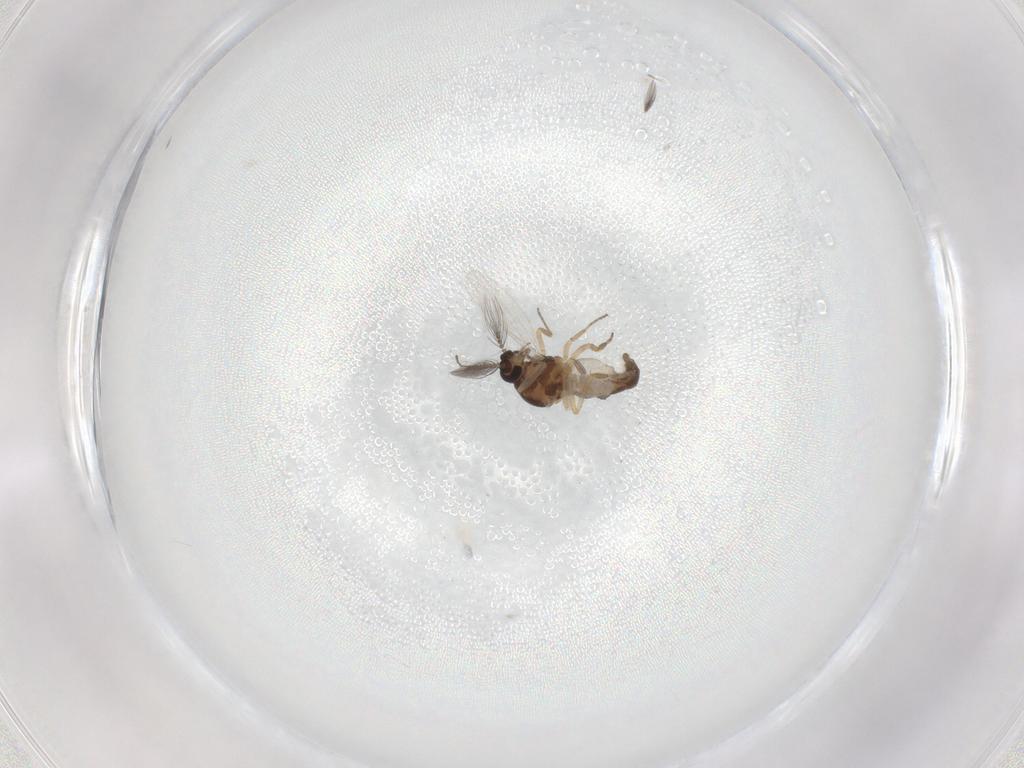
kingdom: Animalia
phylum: Arthropoda
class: Insecta
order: Diptera
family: Ceratopogonidae
